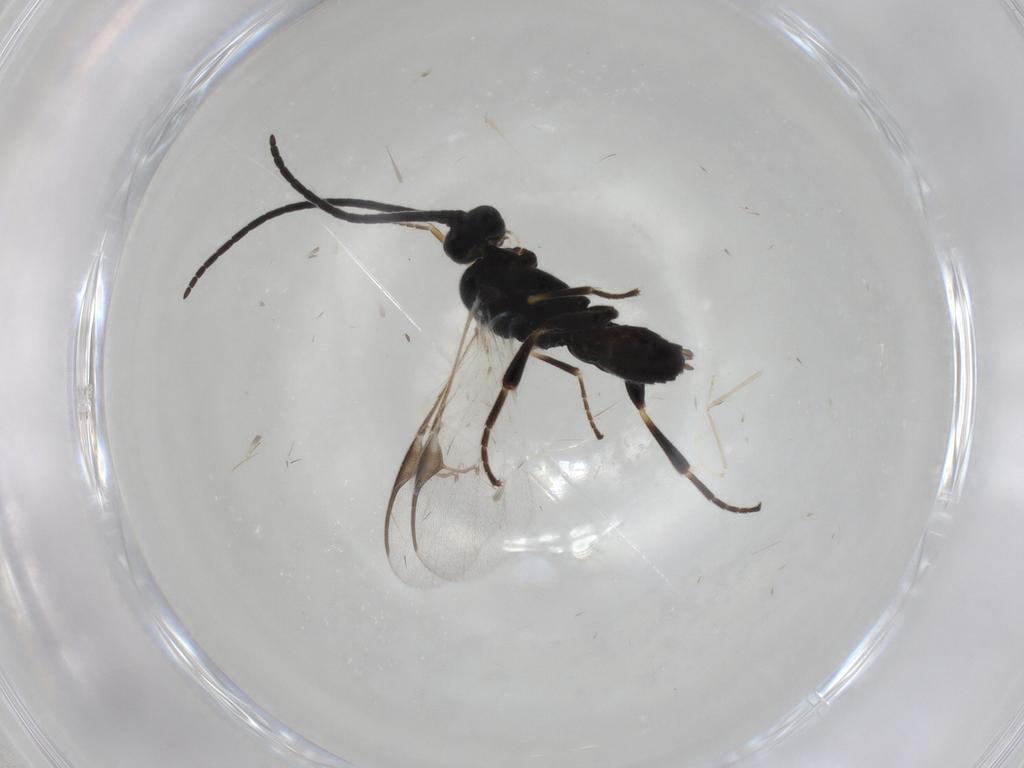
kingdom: Animalia
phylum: Arthropoda
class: Insecta
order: Hymenoptera
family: Braconidae
